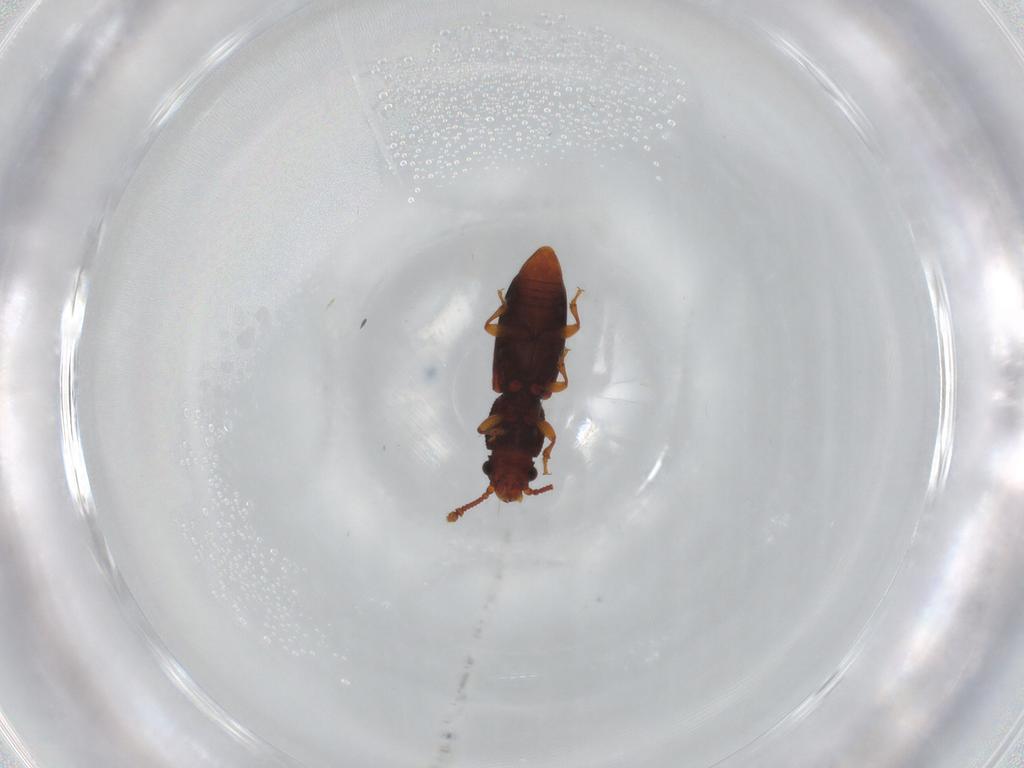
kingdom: Animalia
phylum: Arthropoda
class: Insecta
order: Coleoptera
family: Monotomidae
